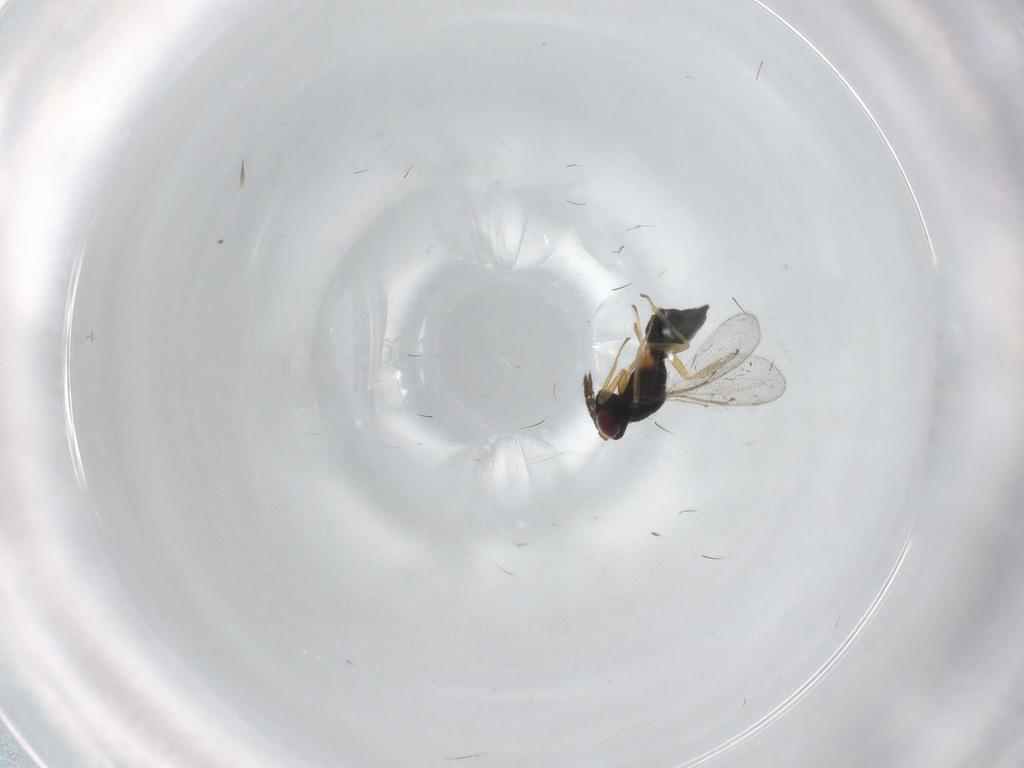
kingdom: Animalia
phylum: Arthropoda
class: Insecta
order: Hymenoptera
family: Eulophidae
